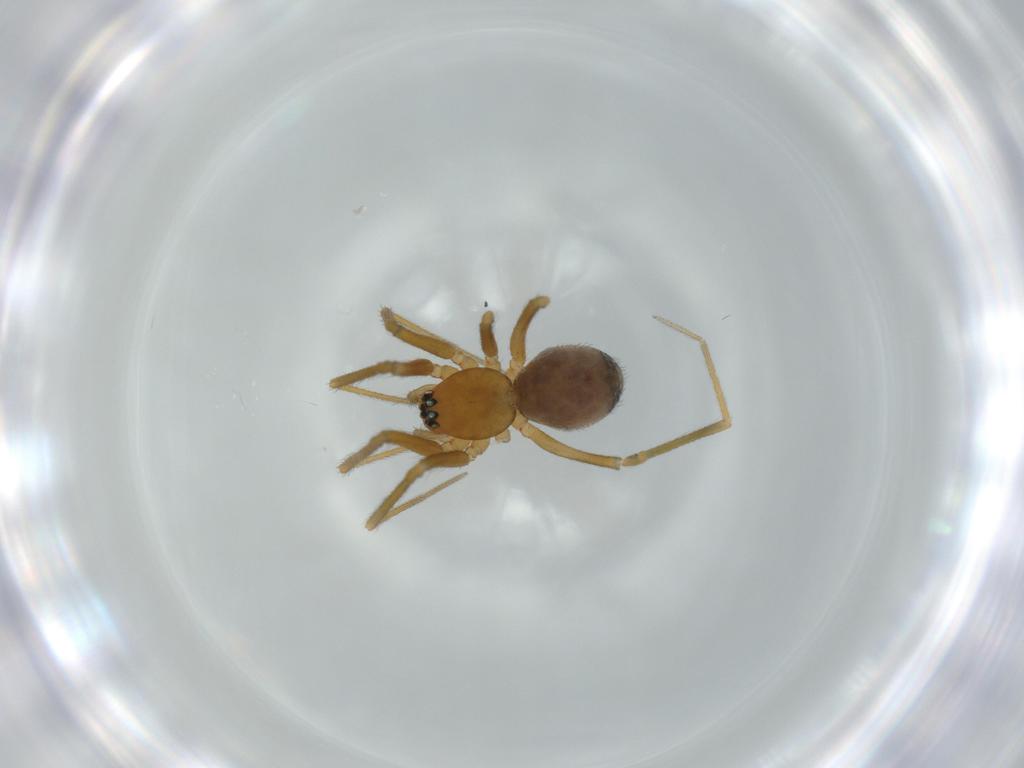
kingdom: Animalia
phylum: Arthropoda
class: Arachnida
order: Araneae
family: Linyphiidae
